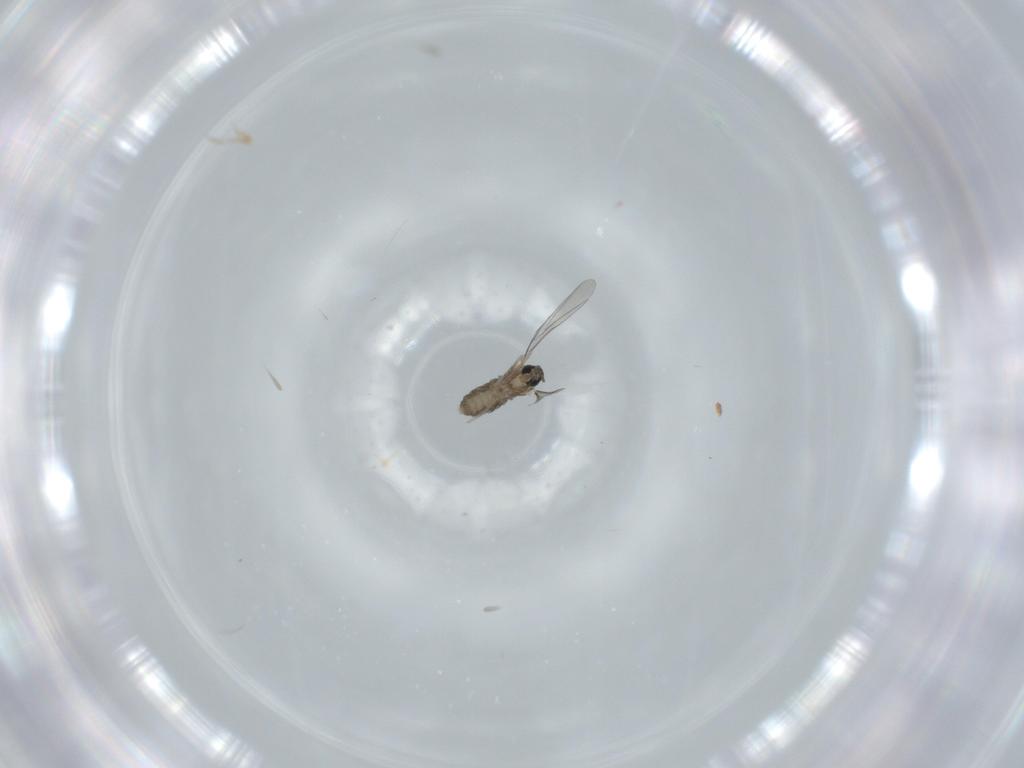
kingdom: Animalia
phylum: Arthropoda
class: Insecta
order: Diptera
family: Cecidomyiidae
